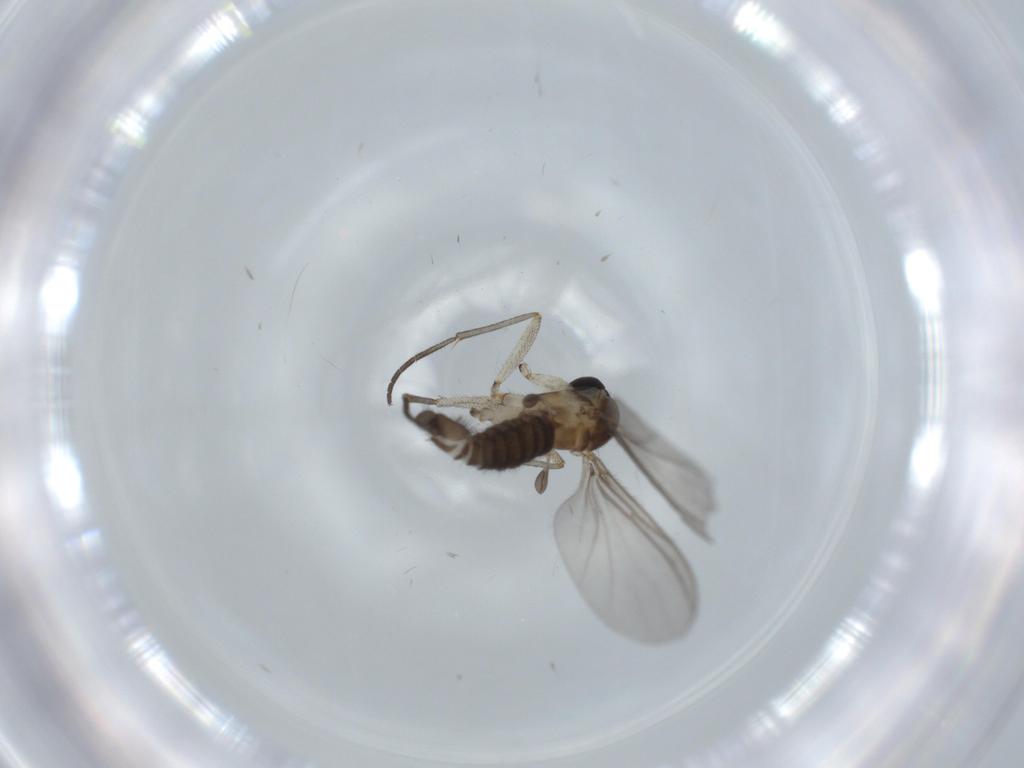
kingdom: Animalia
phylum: Arthropoda
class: Insecta
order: Diptera
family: Sciaridae
